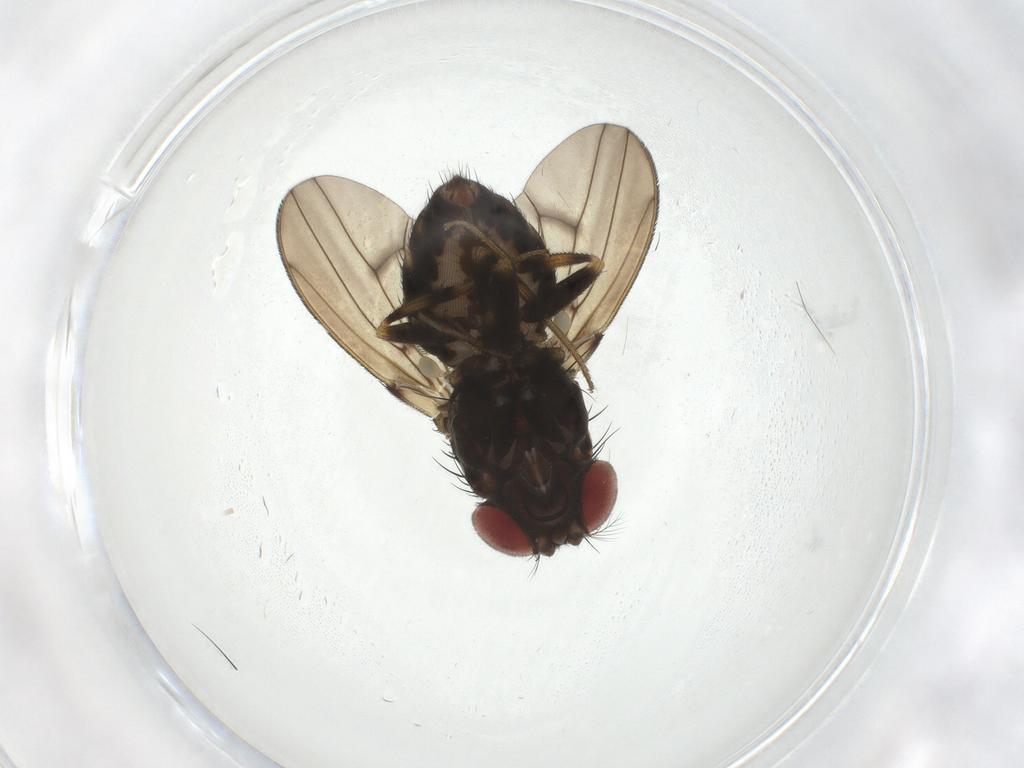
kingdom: Animalia
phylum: Arthropoda
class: Insecta
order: Diptera
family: Drosophilidae
